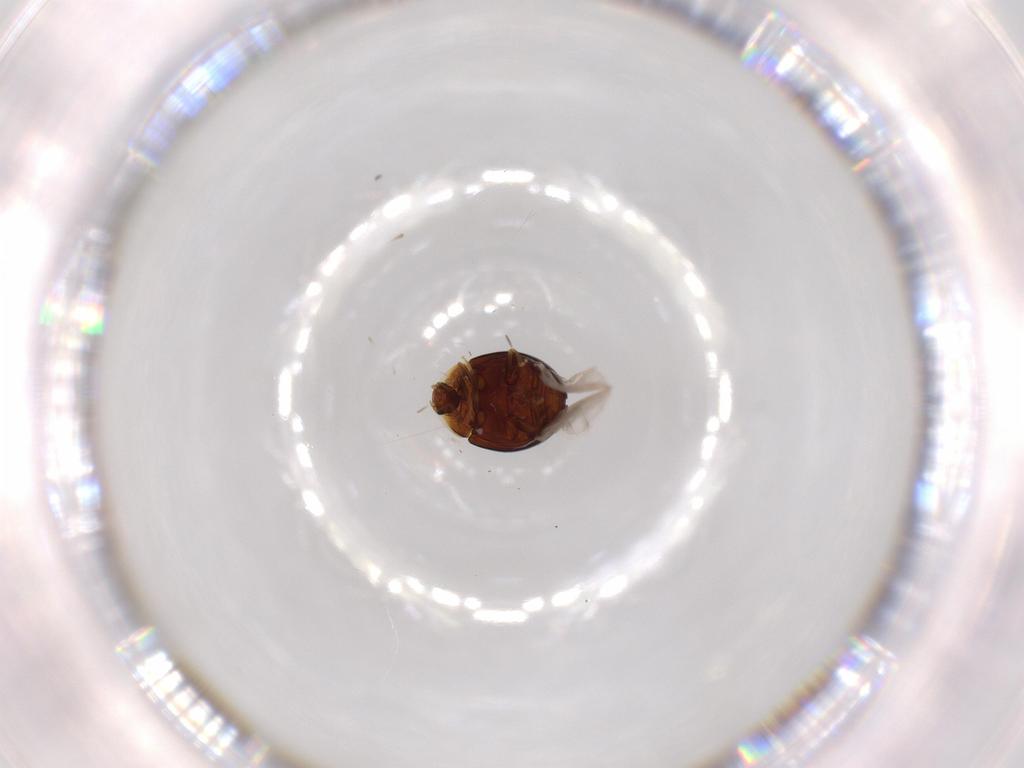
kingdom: Animalia
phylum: Arthropoda
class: Insecta
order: Coleoptera
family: Corylophidae
